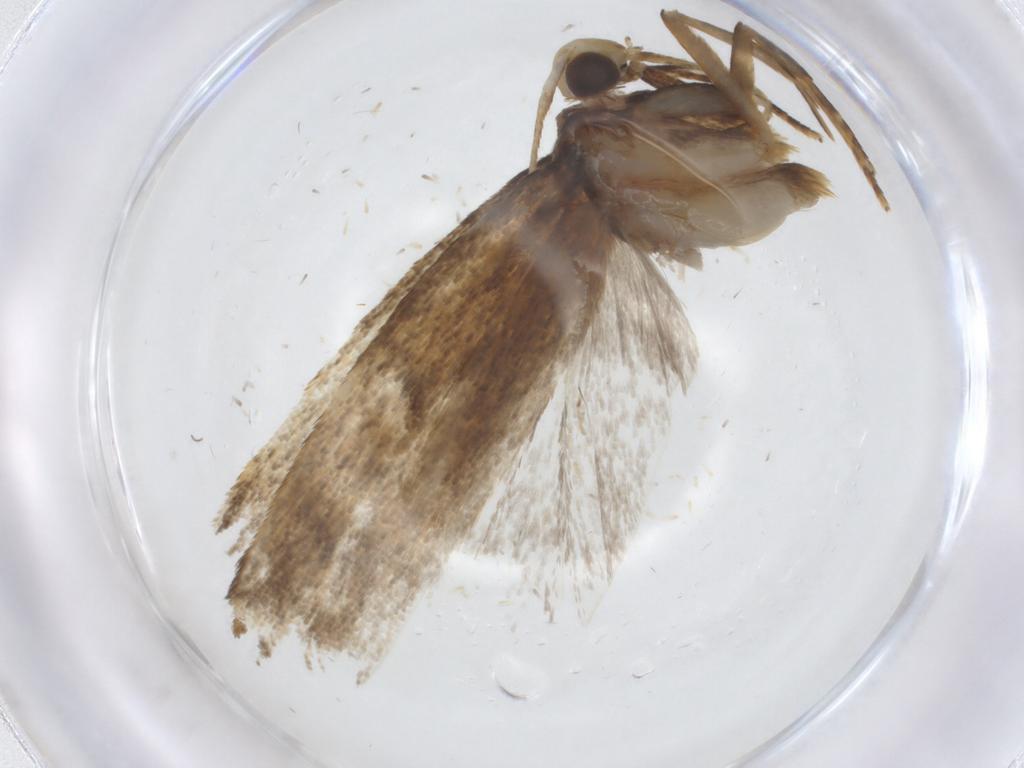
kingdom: Animalia
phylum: Arthropoda
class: Insecta
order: Lepidoptera
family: Autostichidae
